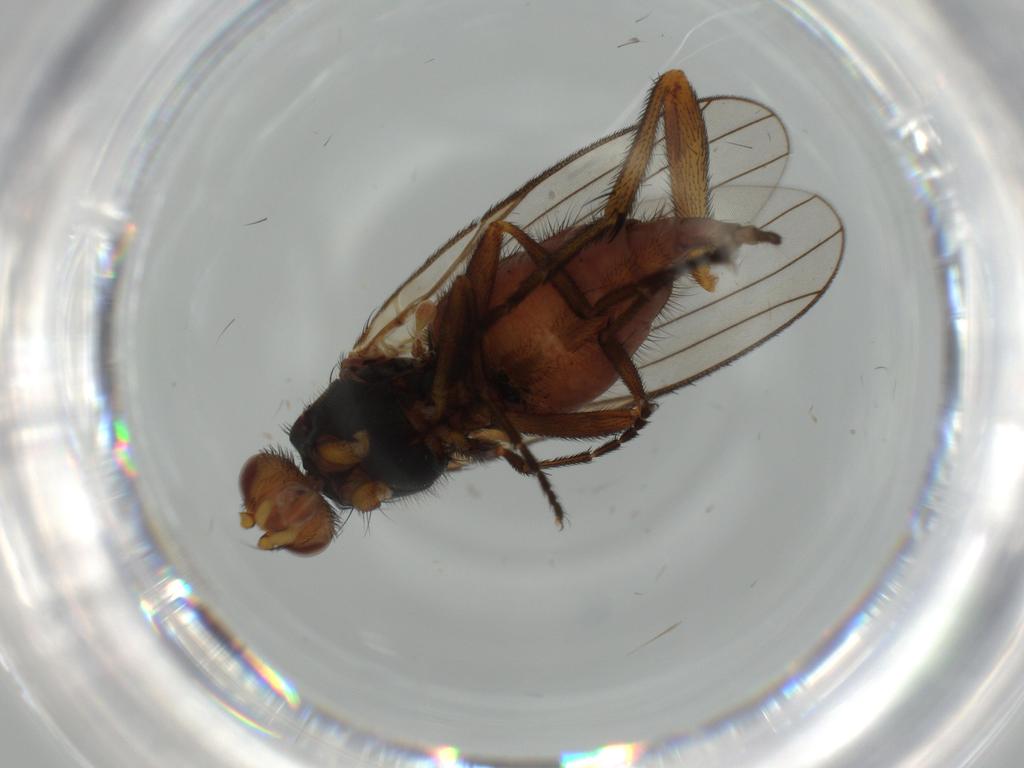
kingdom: Animalia
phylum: Arthropoda
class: Insecta
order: Diptera
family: Heleomyzidae
